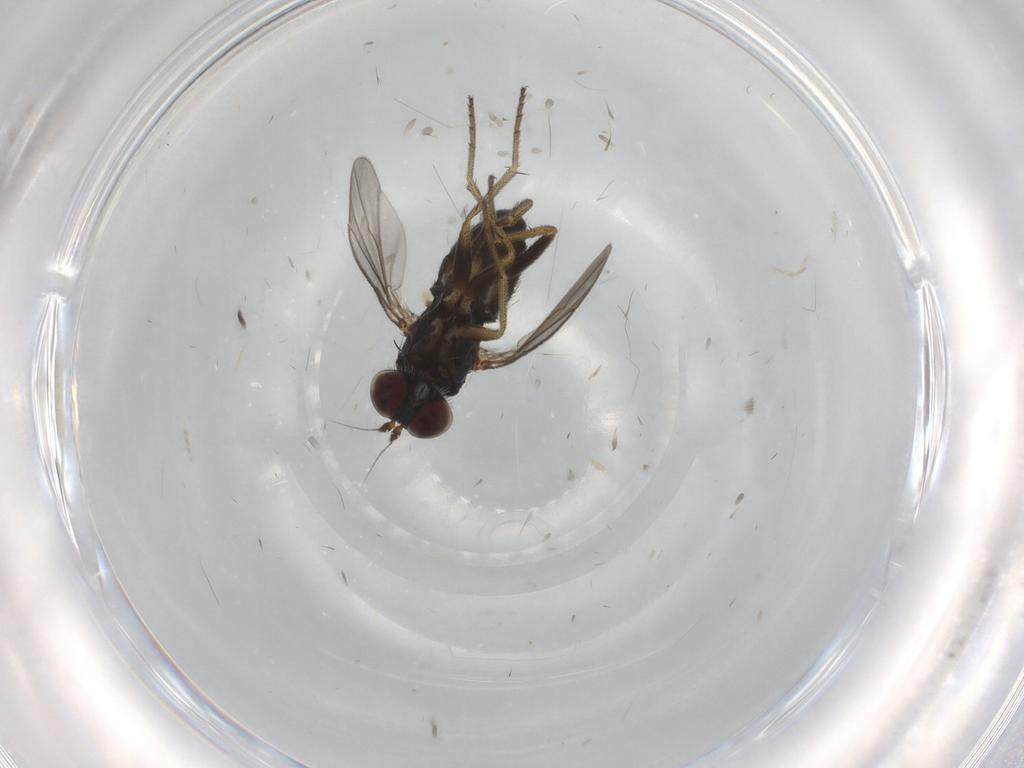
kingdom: Animalia
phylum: Arthropoda
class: Insecta
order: Diptera
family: Dolichopodidae
